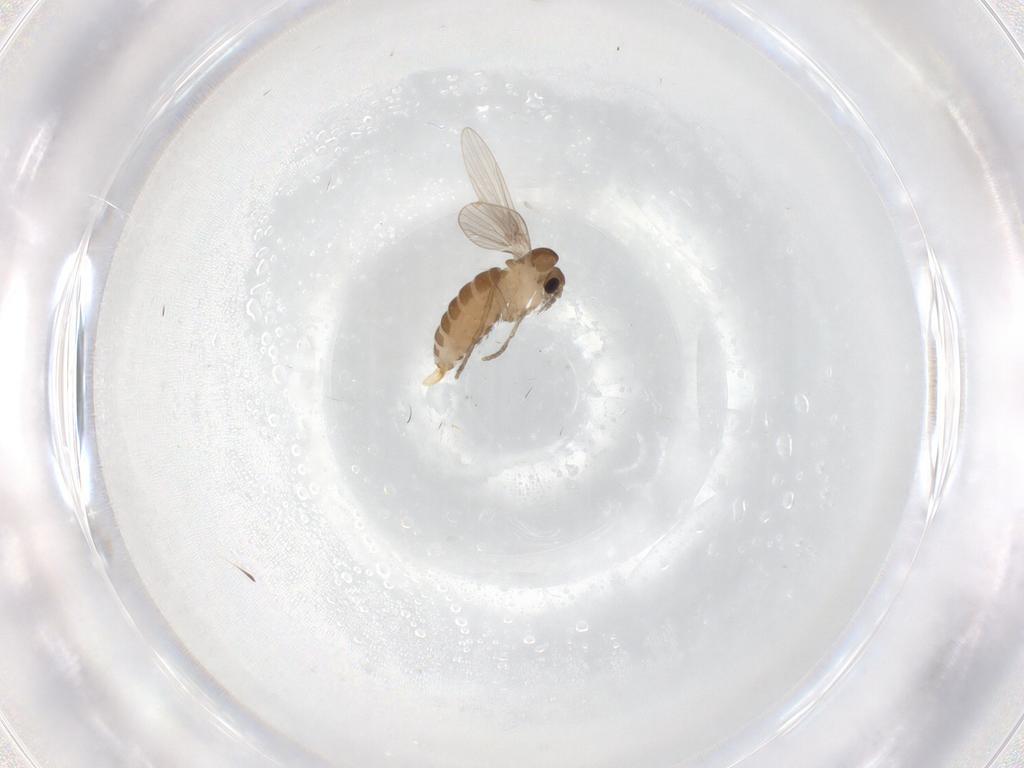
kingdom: Animalia
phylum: Arthropoda
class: Insecta
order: Diptera
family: Psychodidae
